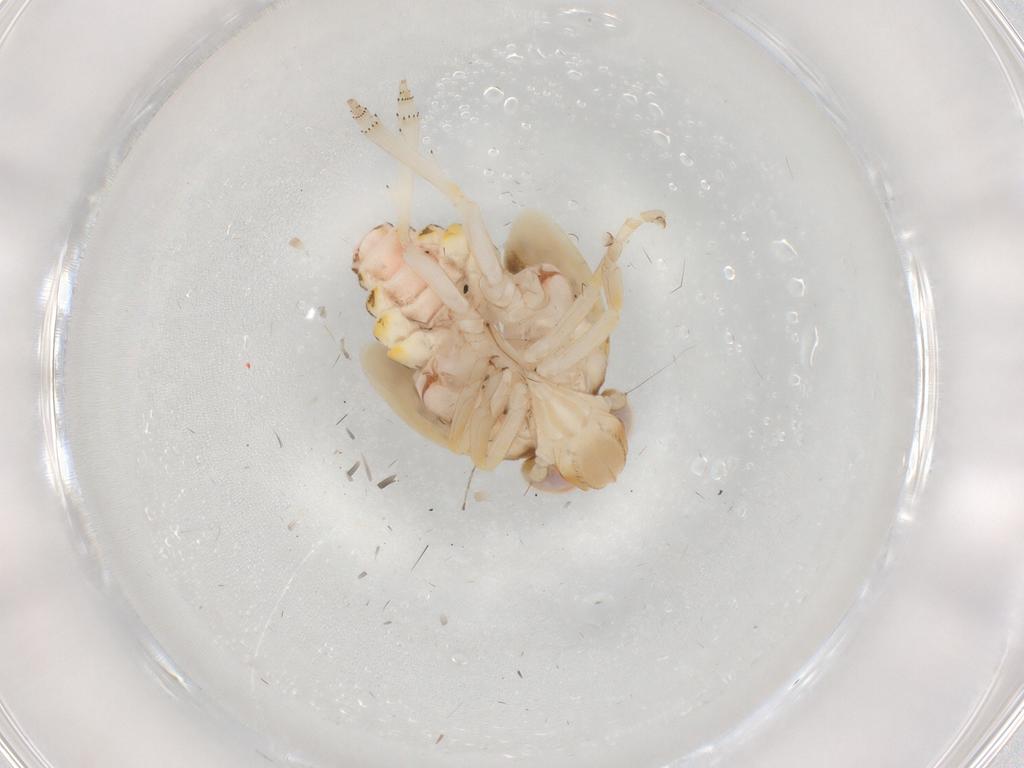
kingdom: Animalia
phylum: Arthropoda
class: Insecta
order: Hemiptera
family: Nogodinidae
